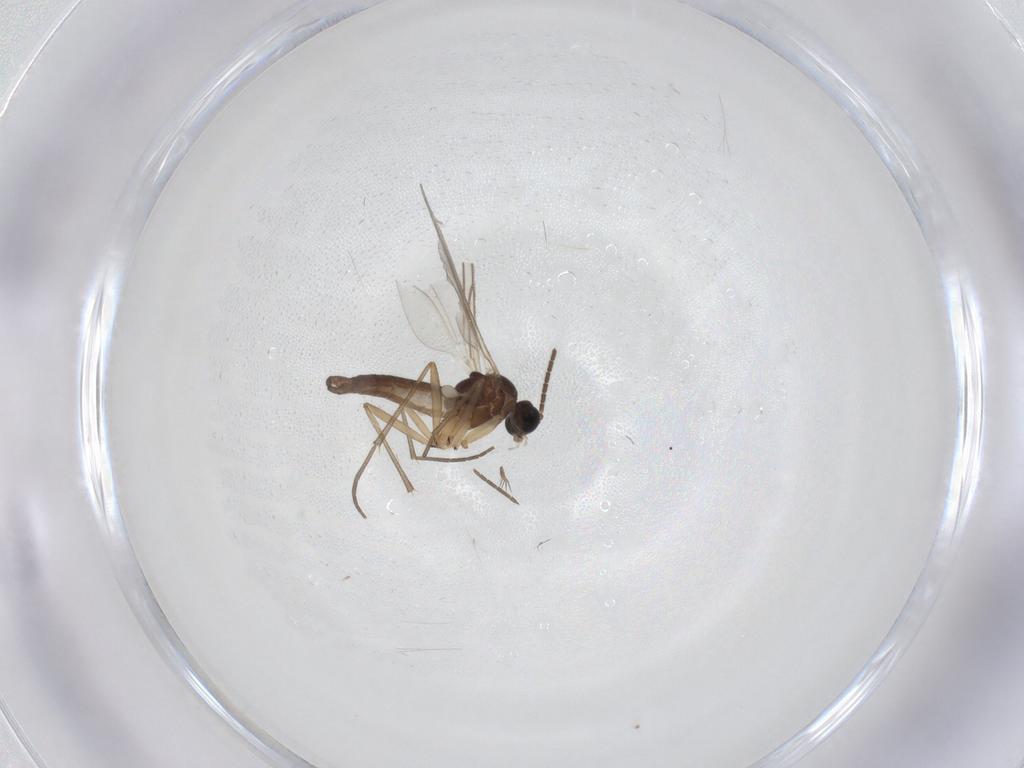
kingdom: Animalia
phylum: Arthropoda
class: Insecta
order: Diptera
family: Sciaridae
